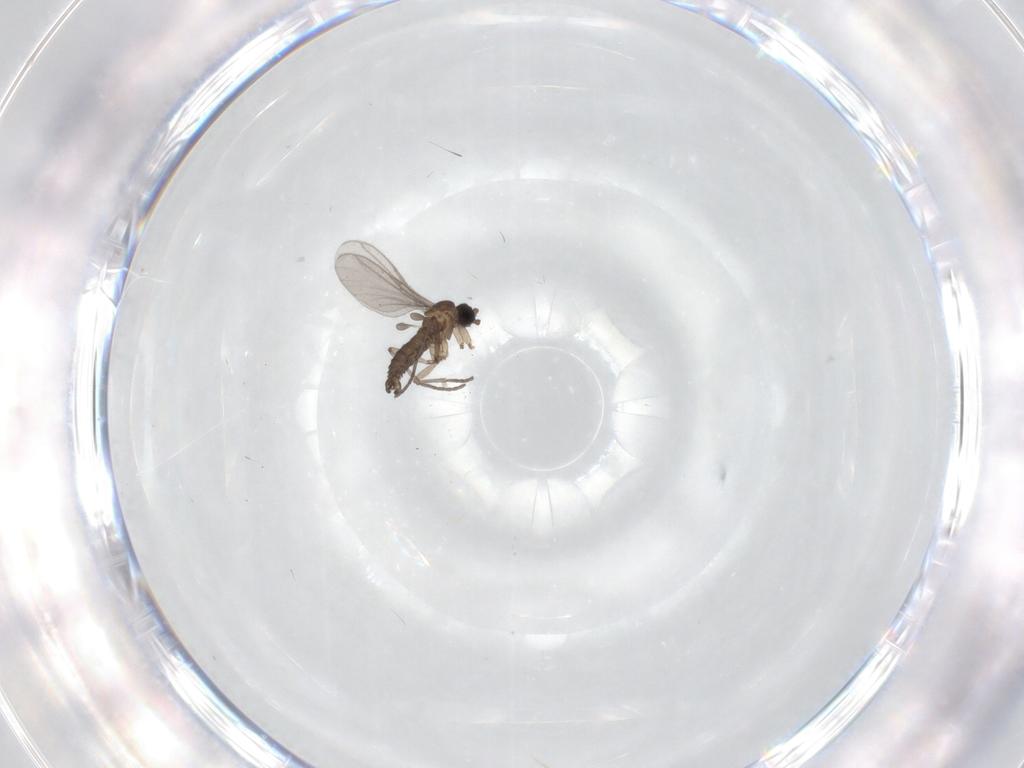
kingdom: Animalia
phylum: Arthropoda
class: Insecta
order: Diptera
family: Sciaridae
